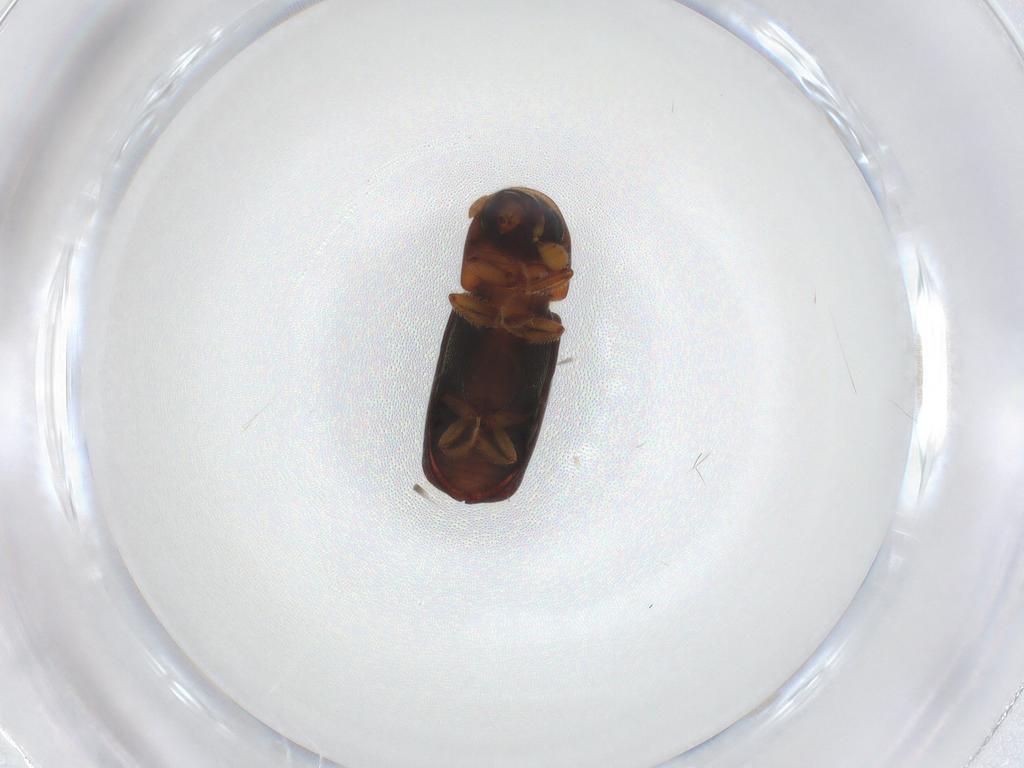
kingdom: Animalia
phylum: Arthropoda
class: Insecta
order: Coleoptera
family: Curculionidae
